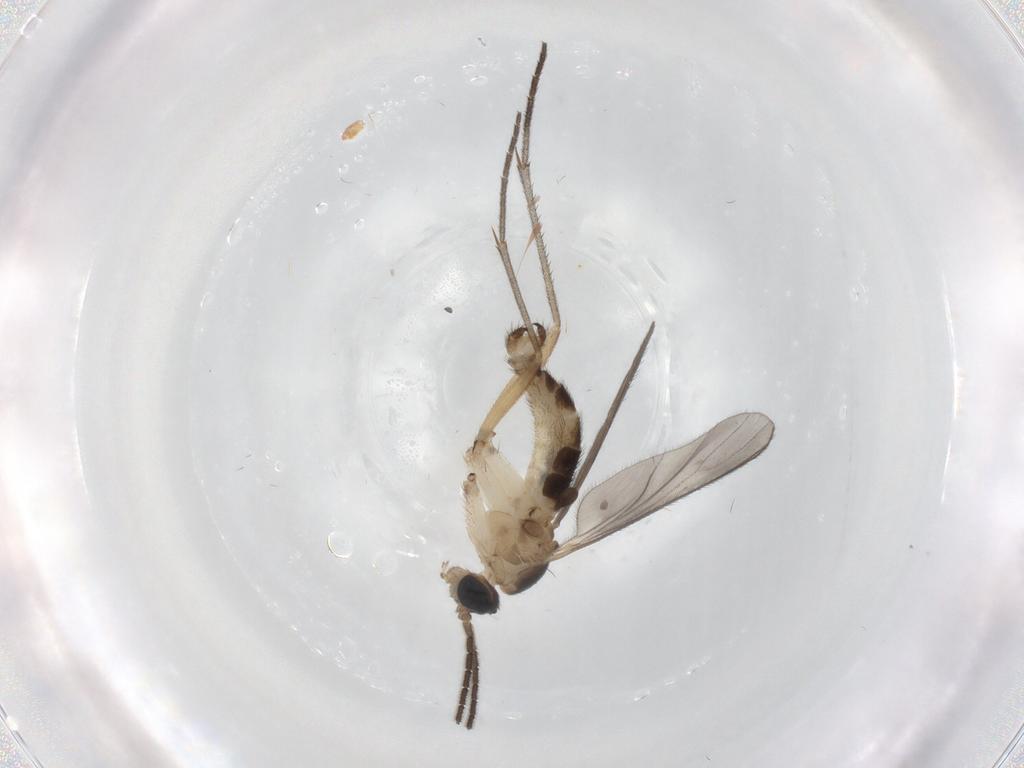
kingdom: Animalia
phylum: Arthropoda
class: Insecta
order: Diptera
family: Sciaridae
